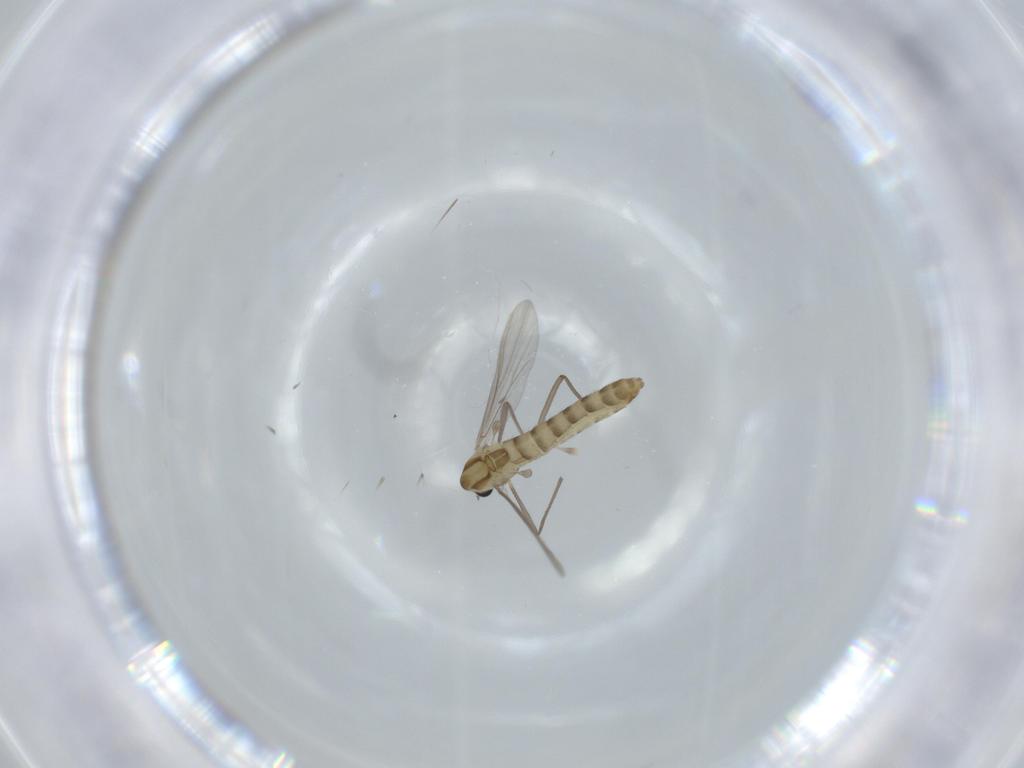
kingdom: Animalia
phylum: Arthropoda
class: Insecta
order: Diptera
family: Chironomidae
